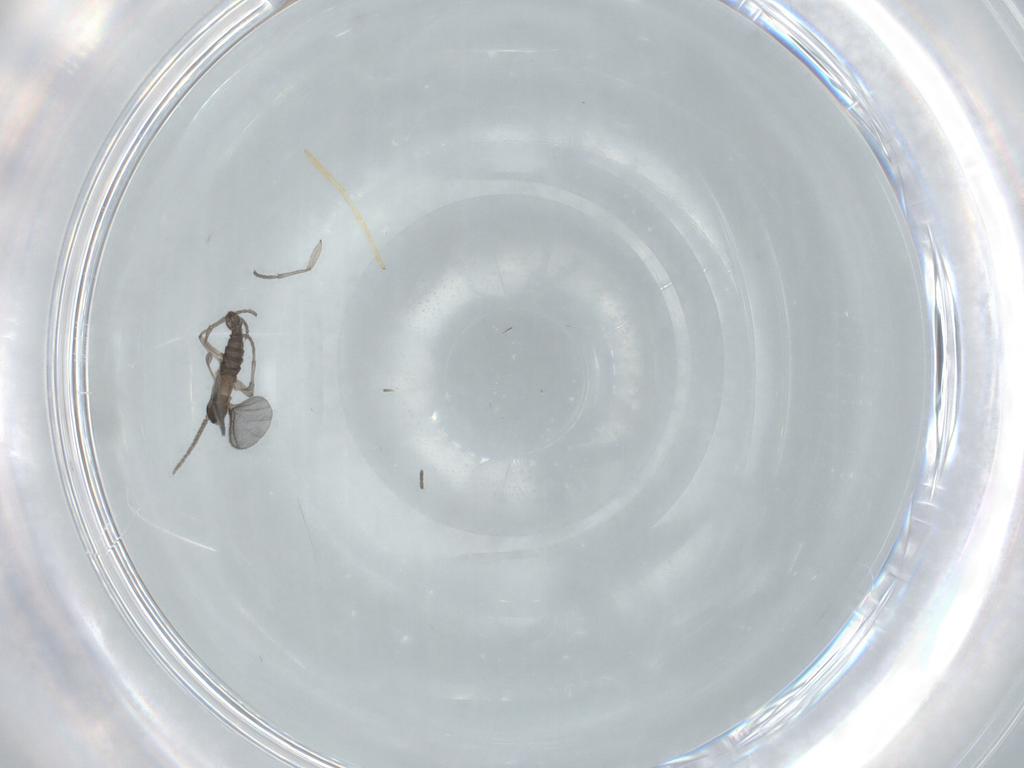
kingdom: Animalia
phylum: Arthropoda
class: Insecta
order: Diptera
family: Sciaridae
